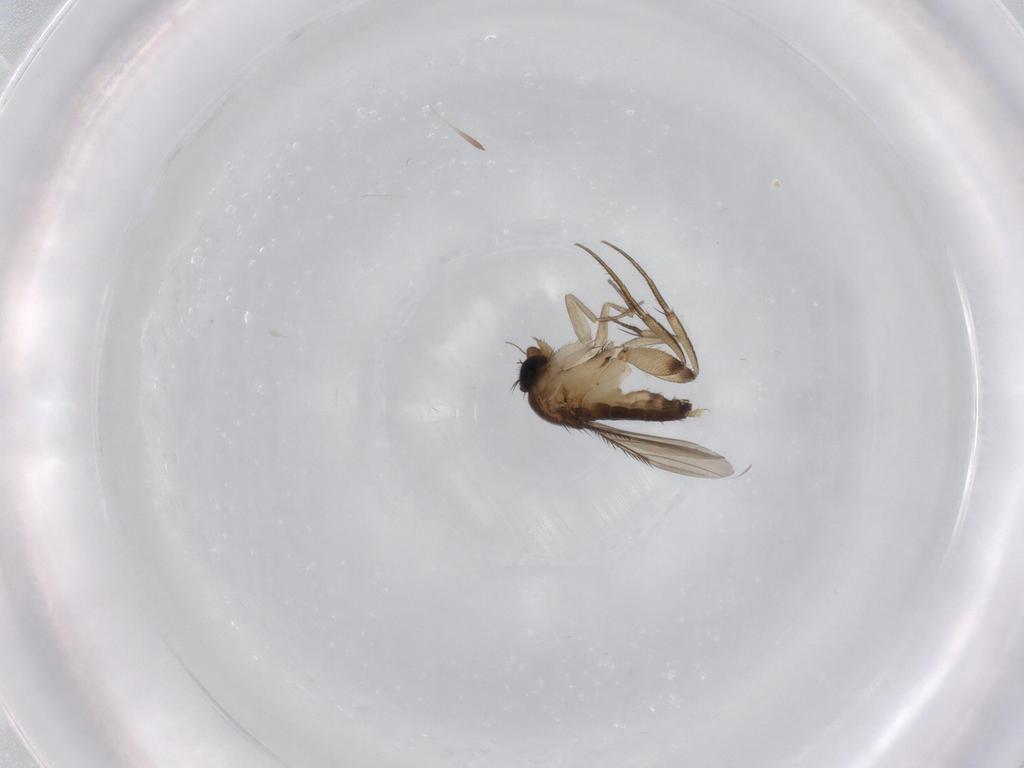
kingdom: Animalia
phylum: Arthropoda
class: Insecta
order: Diptera
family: Phoridae
